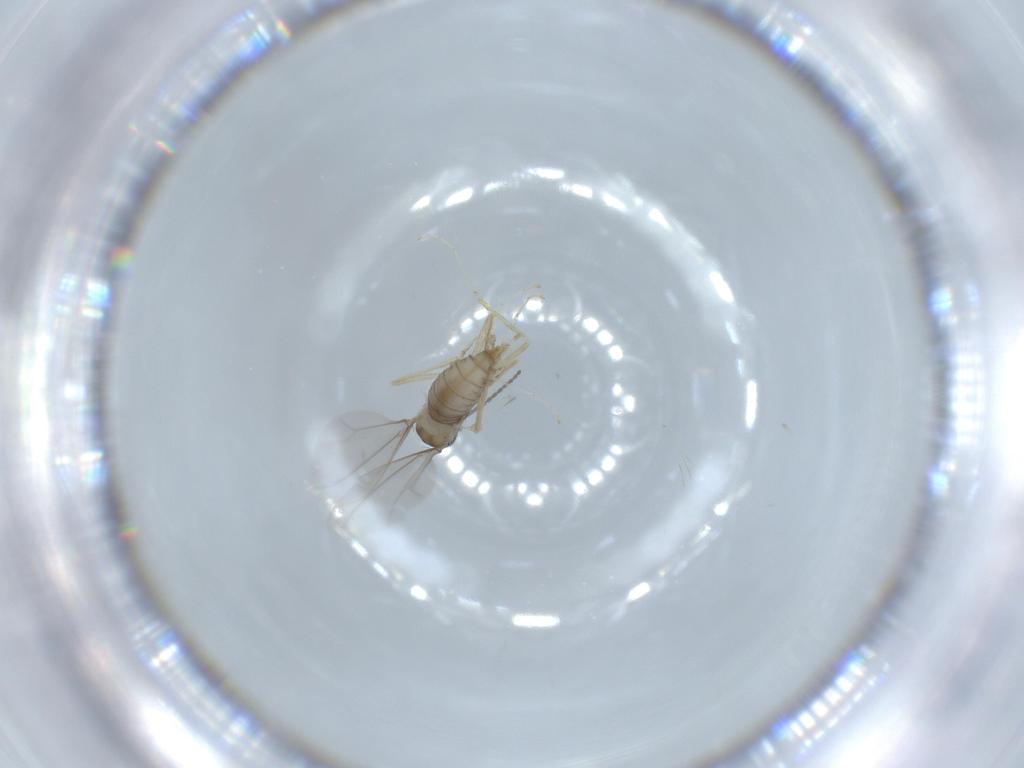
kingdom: Animalia
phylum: Arthropoda
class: Insecta
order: Diptera
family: Cecidomyiidae
